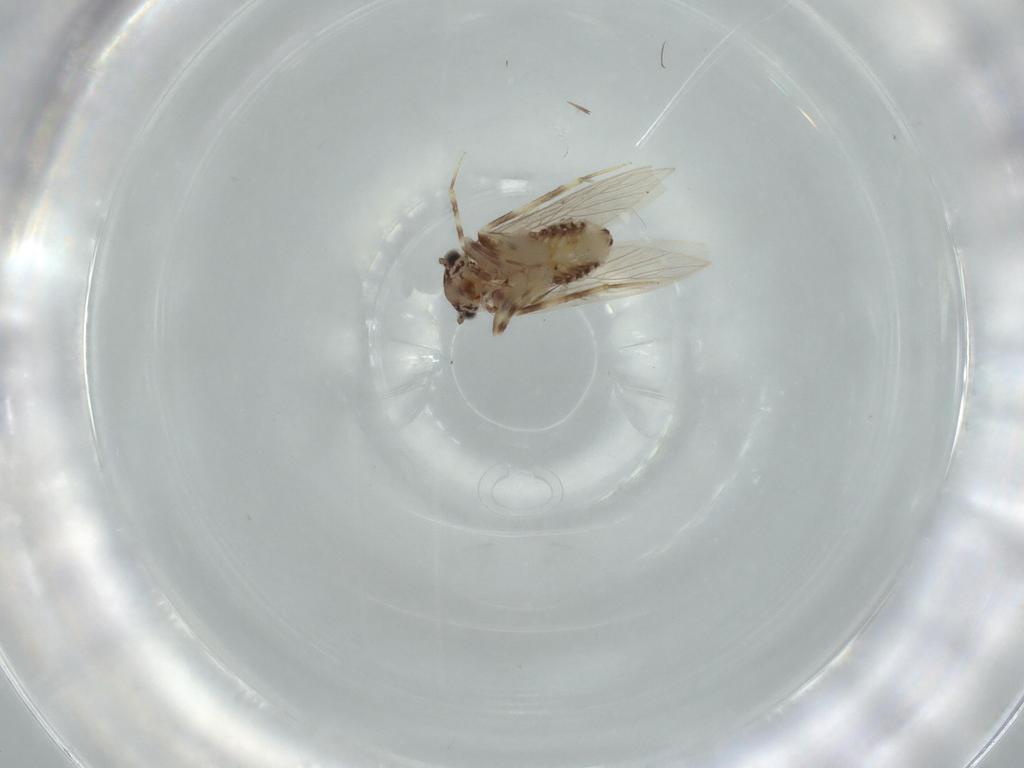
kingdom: Animalia
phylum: Arthropoda
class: Insecta
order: Psocodea
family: Lepidopsocidae
